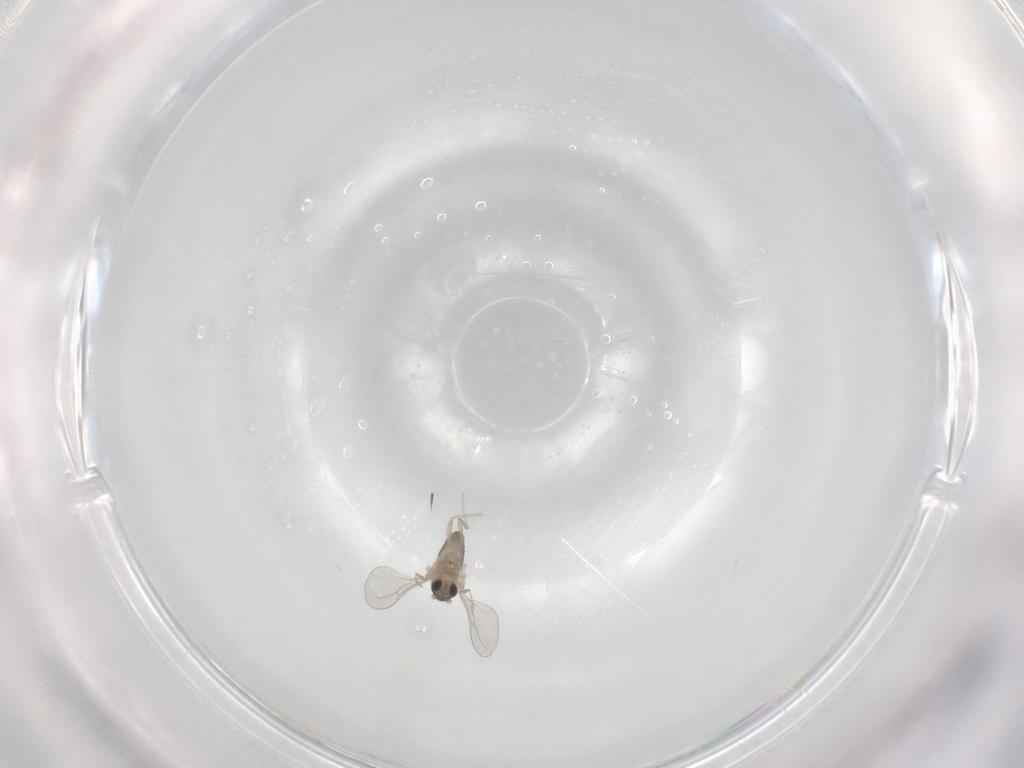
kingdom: Animalia
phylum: Arthropoda
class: Insecta
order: Diptera
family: Cecidomyiidae
